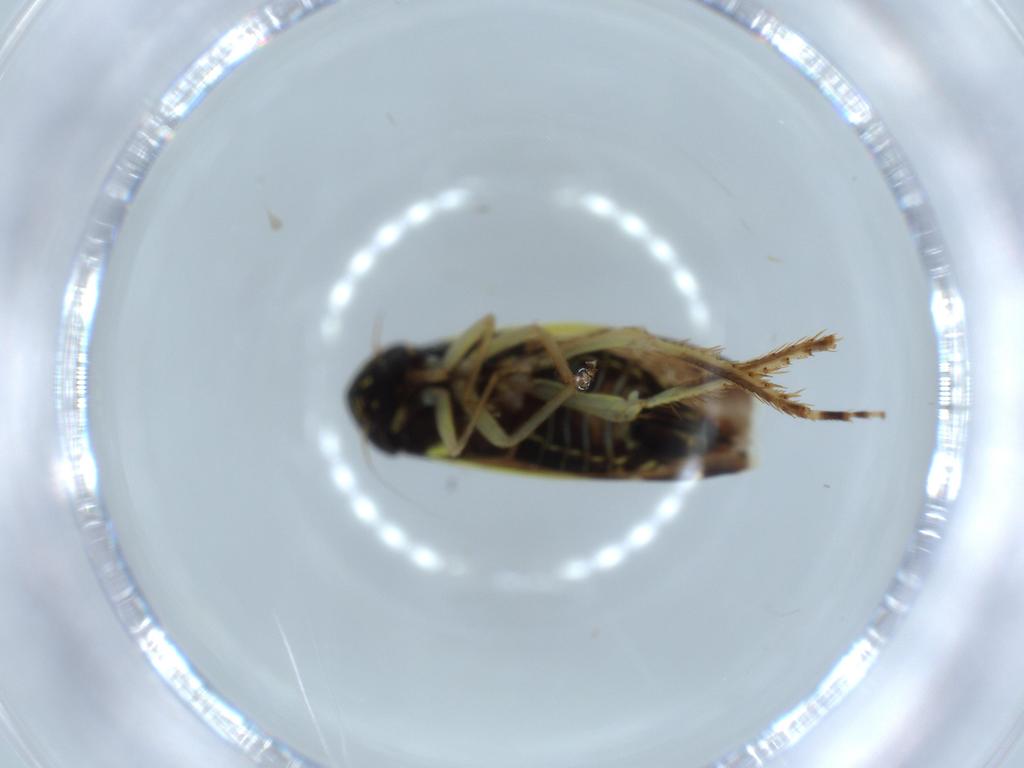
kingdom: Animalia
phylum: Arthropoda
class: Insecta
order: Hemiptera
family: Cicadellidae
